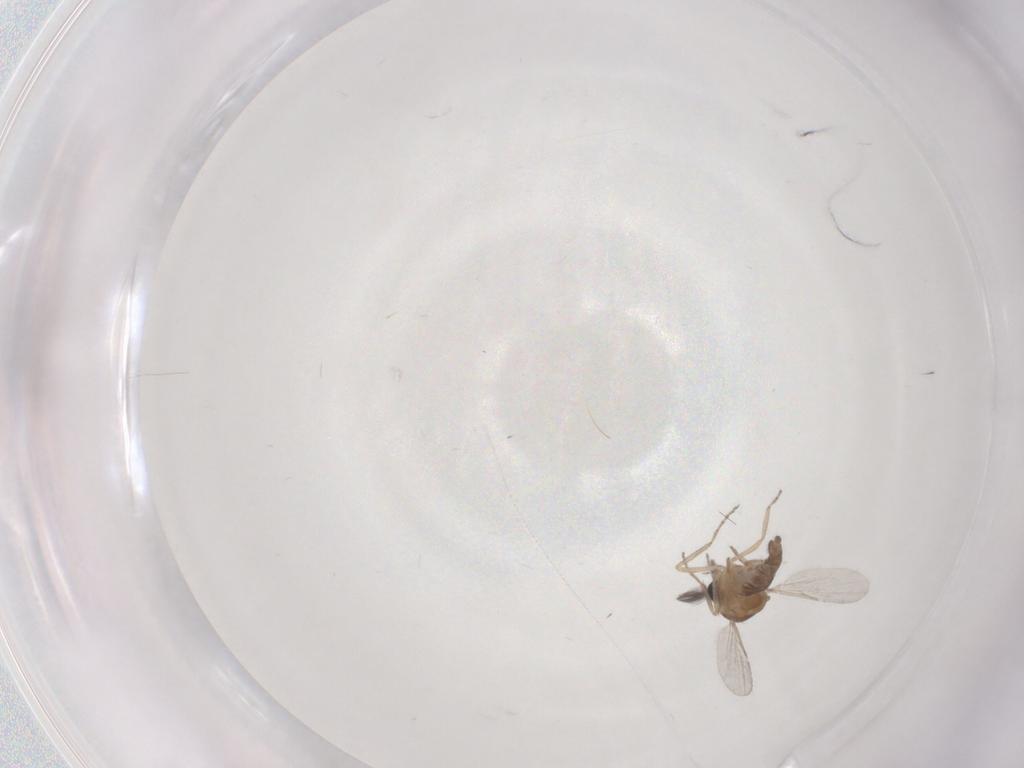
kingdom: Animalia
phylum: Arthropoda
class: Insecta
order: Diptera
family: Ceratopogonidae
